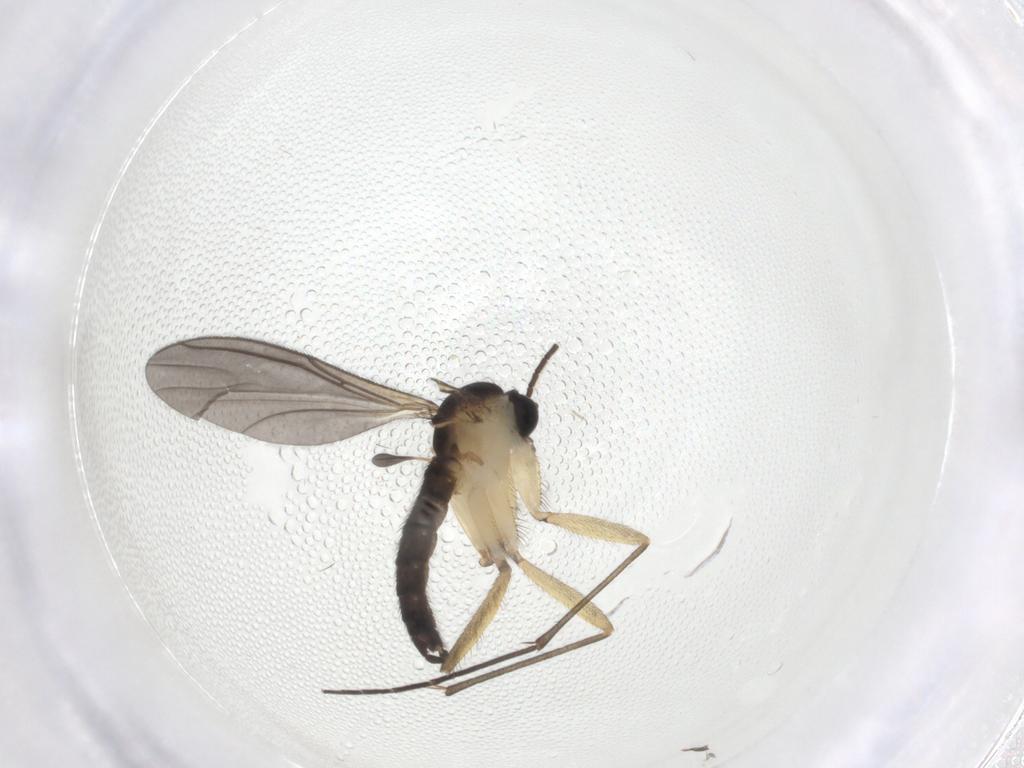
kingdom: Animalia
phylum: Arthropoda
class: Insecta
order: Diptera
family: Sciaridae
